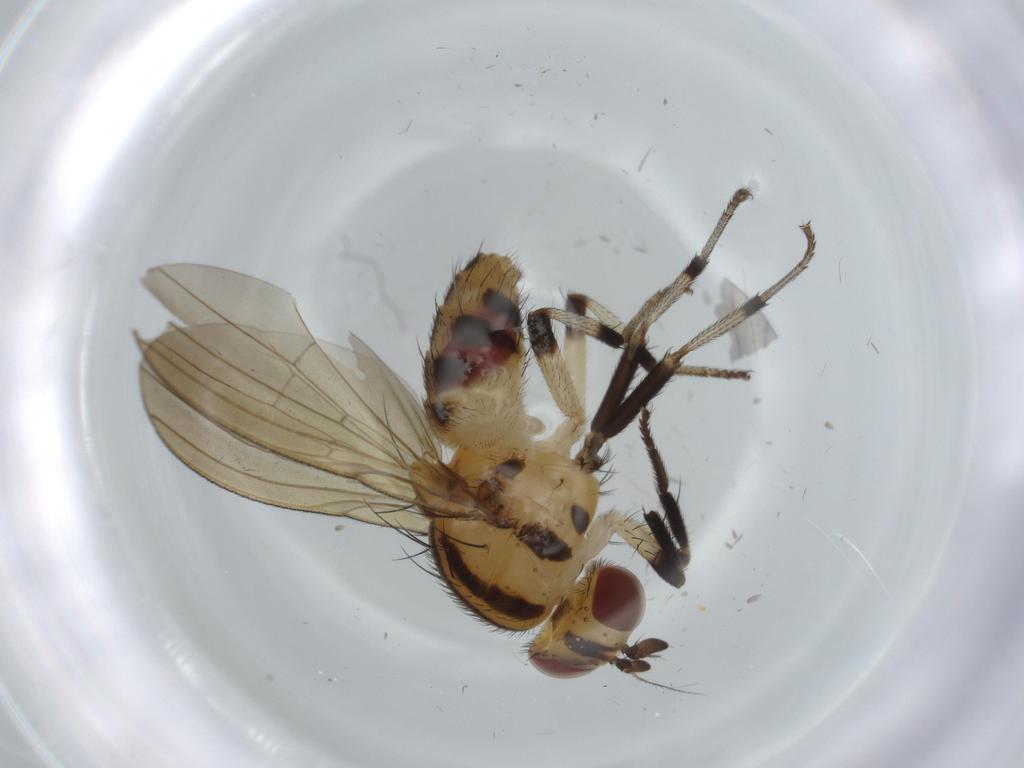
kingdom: Animalia
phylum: Arthropoda
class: Insecta
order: Diptera
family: Lauxaniidae
